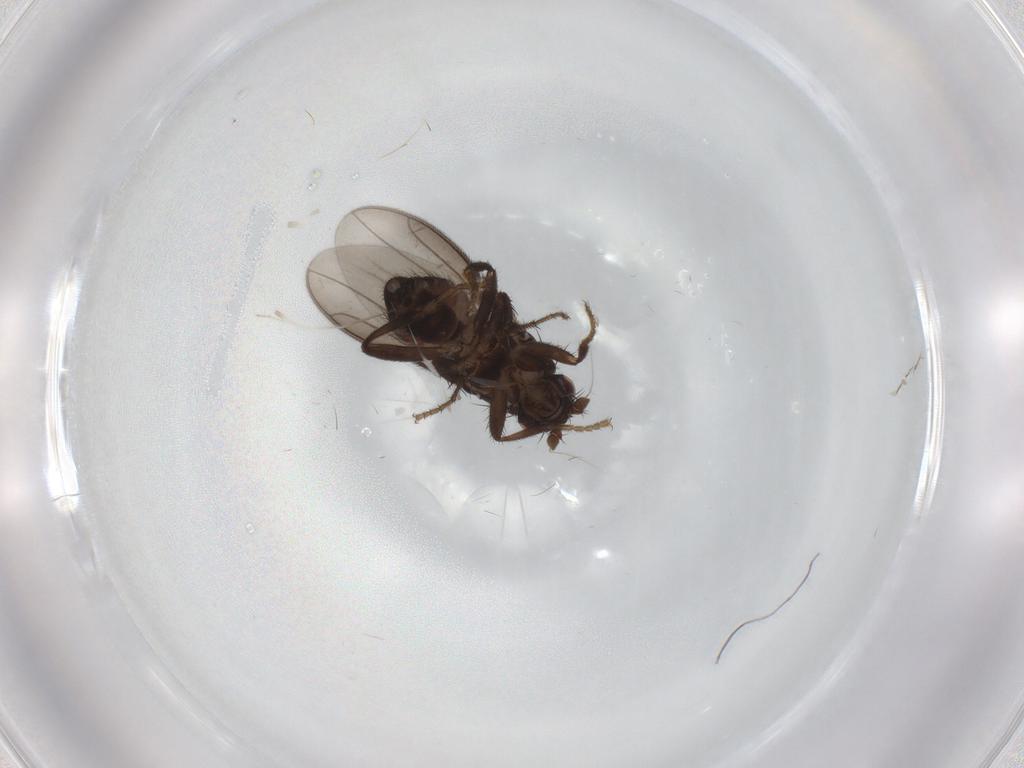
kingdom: Animalia
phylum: Arthropoda
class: Insecta
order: Diptera
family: Sphaeroceridae
